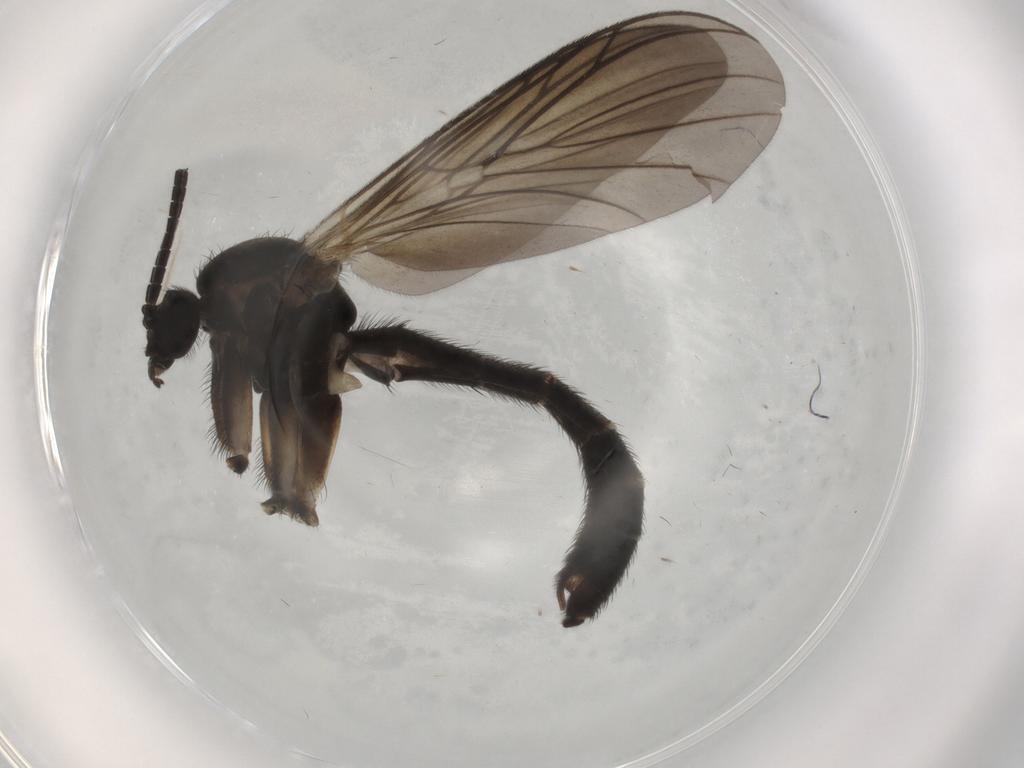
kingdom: Animalia
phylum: Arthropoda
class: Insecta
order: Diptera
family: Keroplatidae
